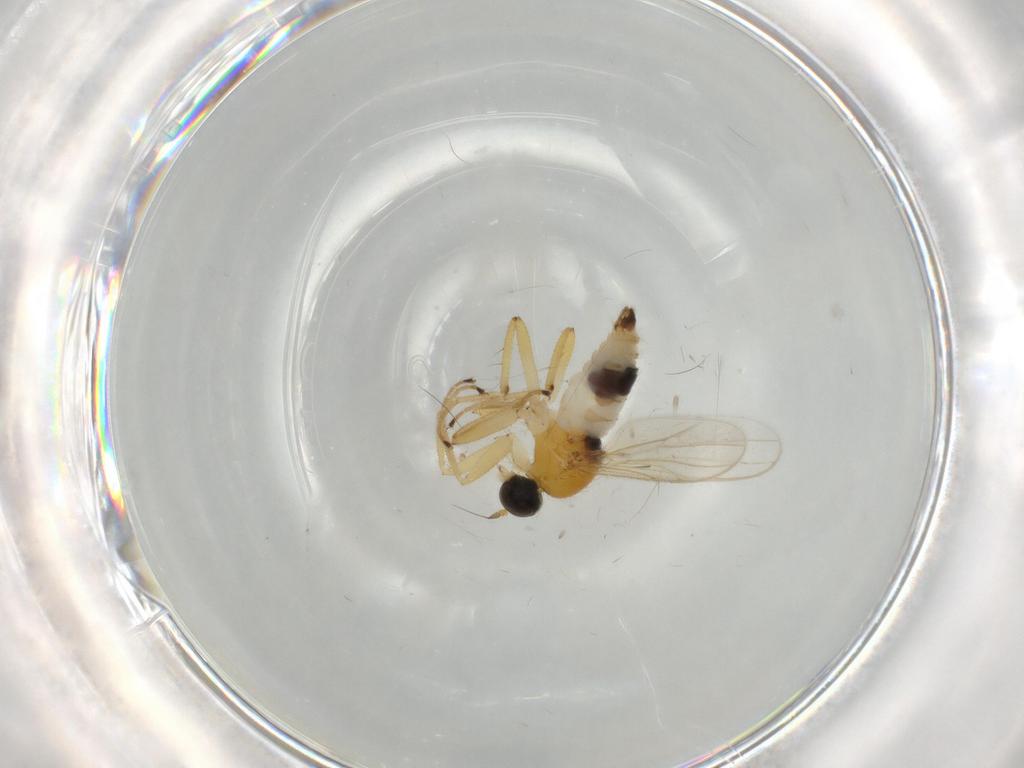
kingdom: Animalia
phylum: Arthropoda
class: Insecta
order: Diptera
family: Hybotidae
